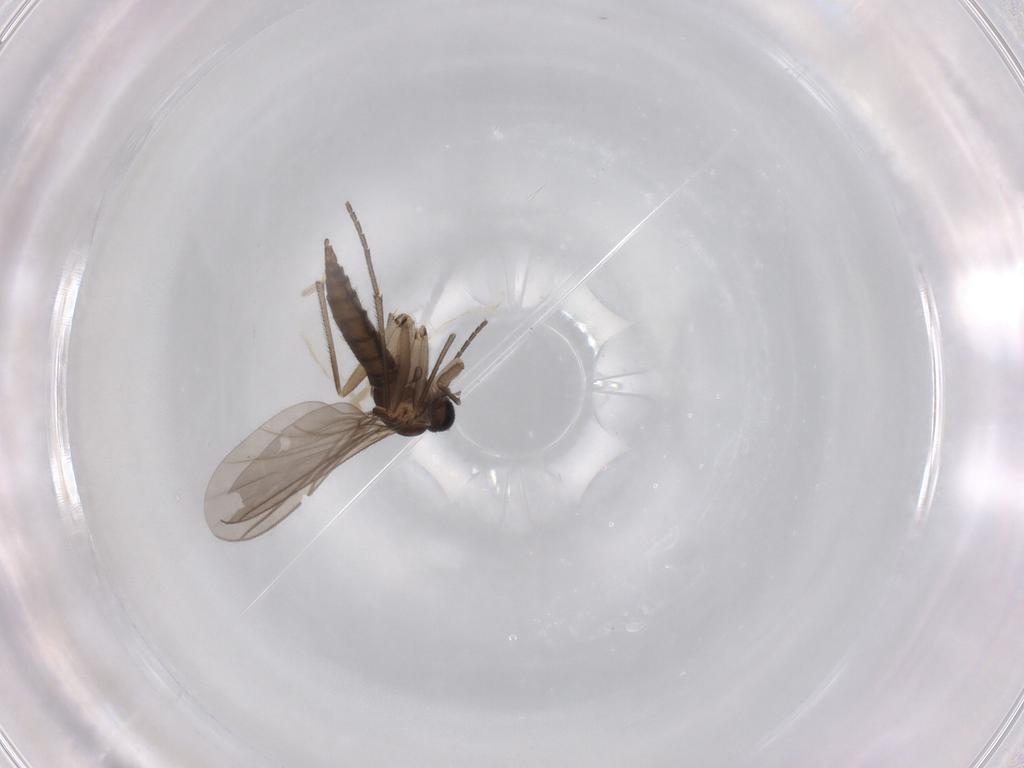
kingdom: Animalia
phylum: Arthropoda
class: Insecta
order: Diptera
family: Sciaridae
